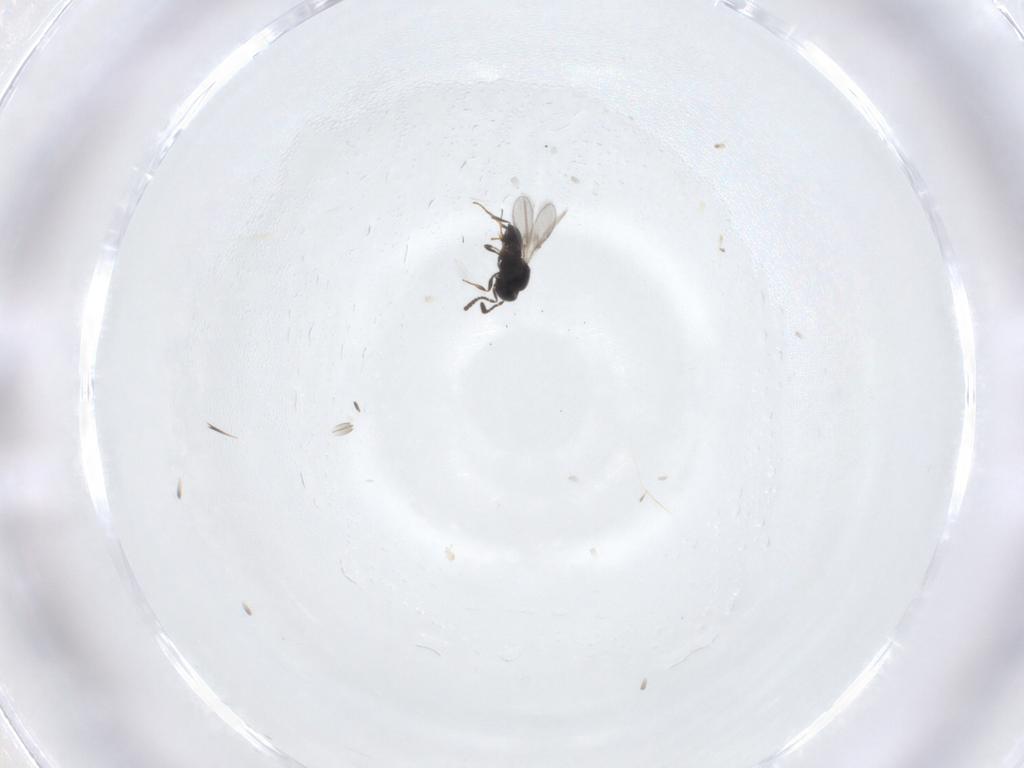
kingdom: Animalia
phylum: Arthropoda
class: Insecta
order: Hymenoptera
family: Scelionidae
